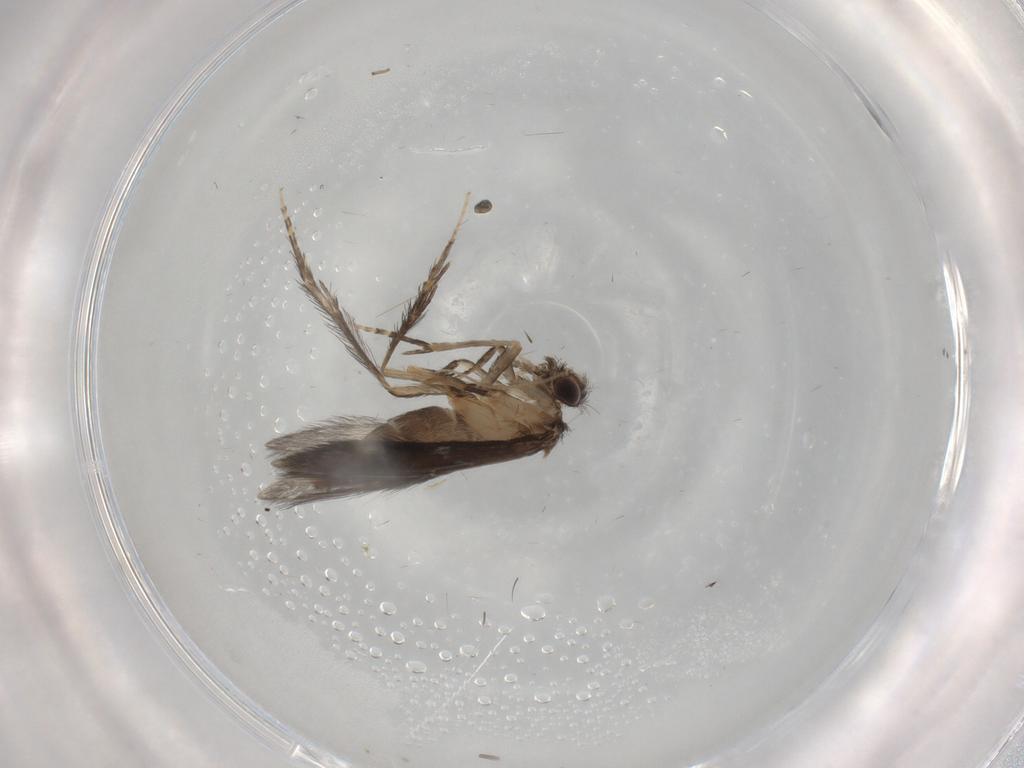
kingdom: Animalia
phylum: Arthropoda
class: Insecta
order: Trichoptera
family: Hydroptilidae
